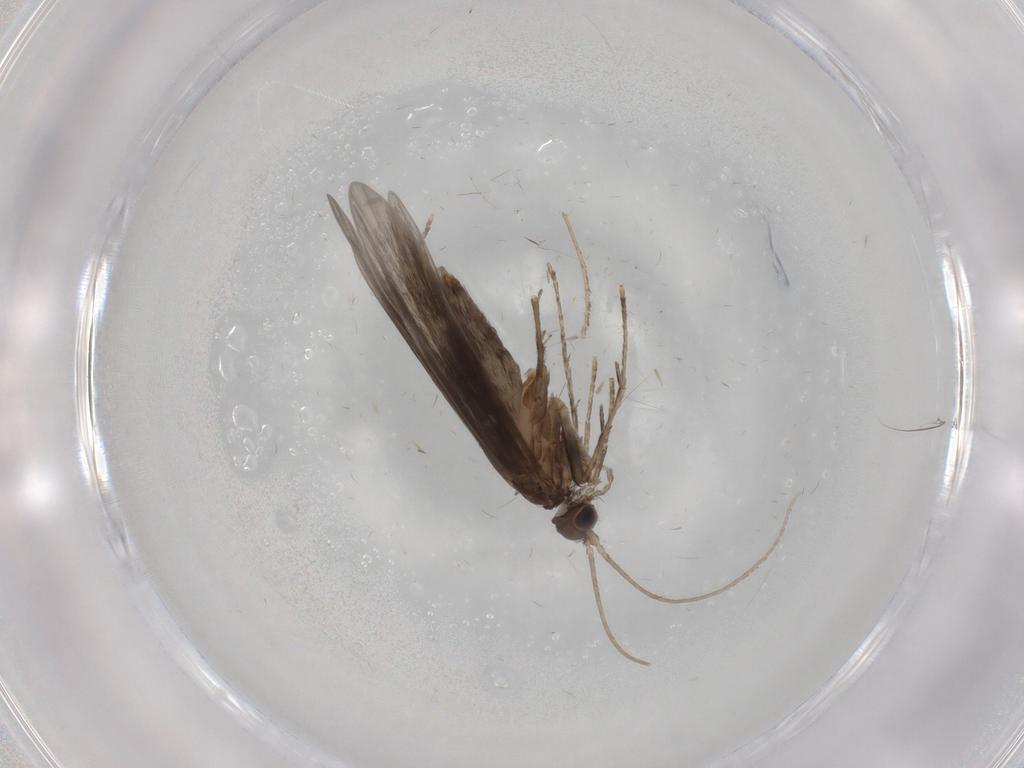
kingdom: Animalia
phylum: Arthropoda
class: Insecta
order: Trichoptera
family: Xiphocentronidae
